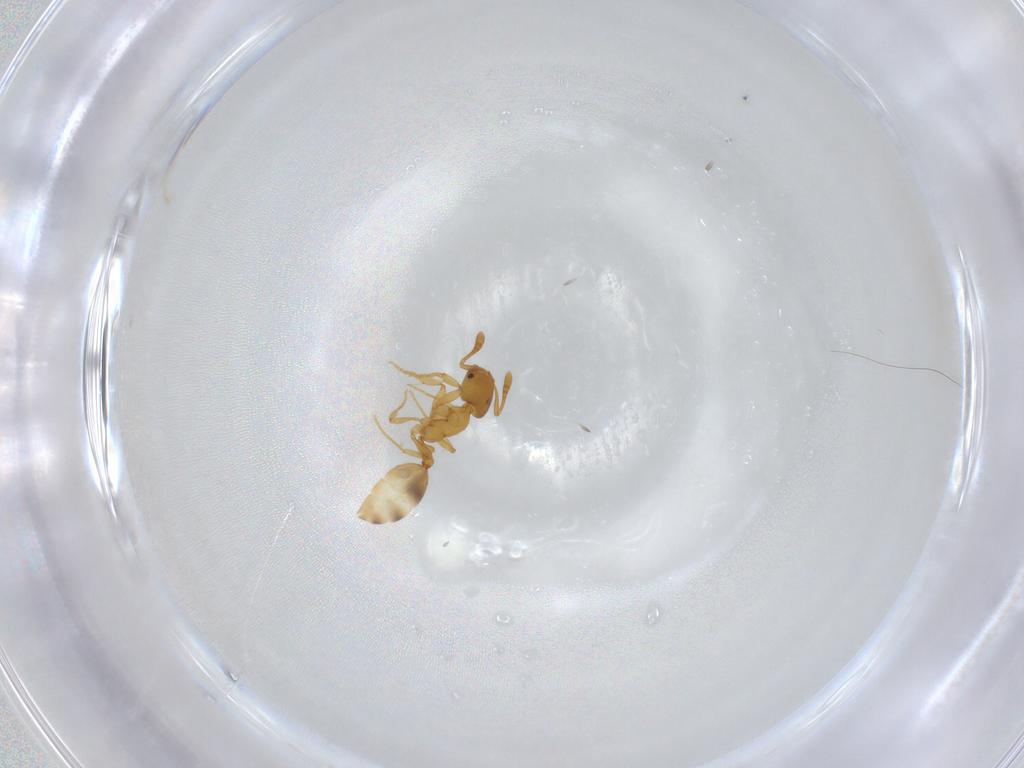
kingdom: Animalia
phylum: Arthropoda
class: Insecta
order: Hymenoptera
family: Formicidae
